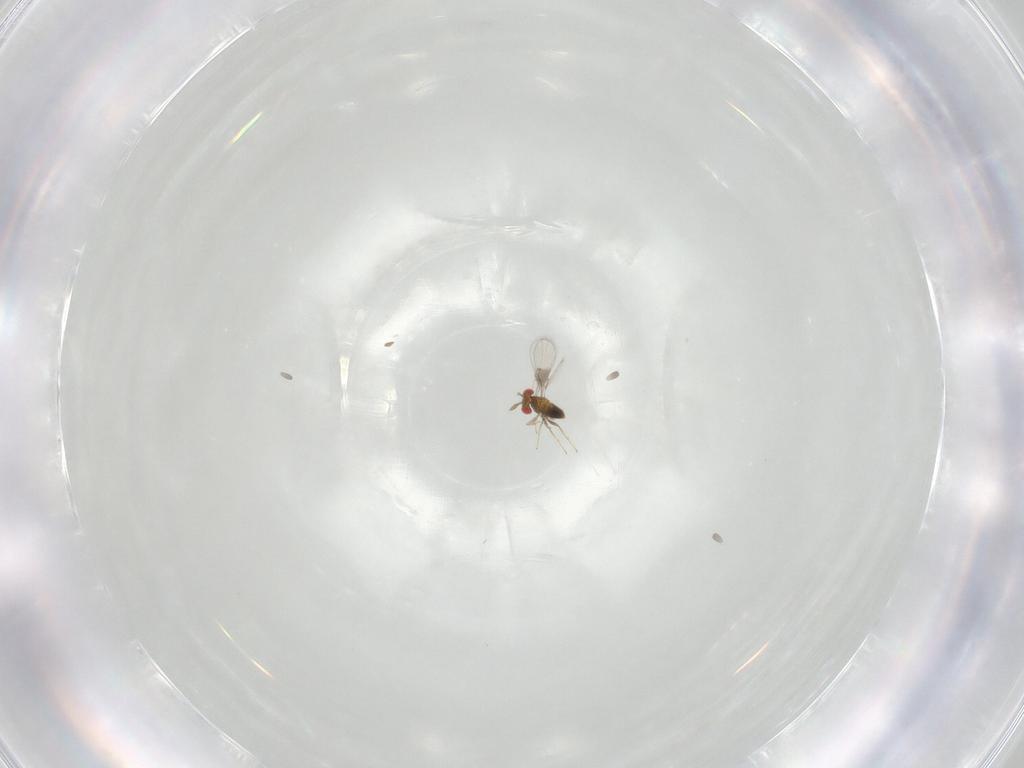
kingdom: Animalia
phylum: Arthropoda
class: Insecta
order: Hymenoptera
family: Trichogrammatidae
